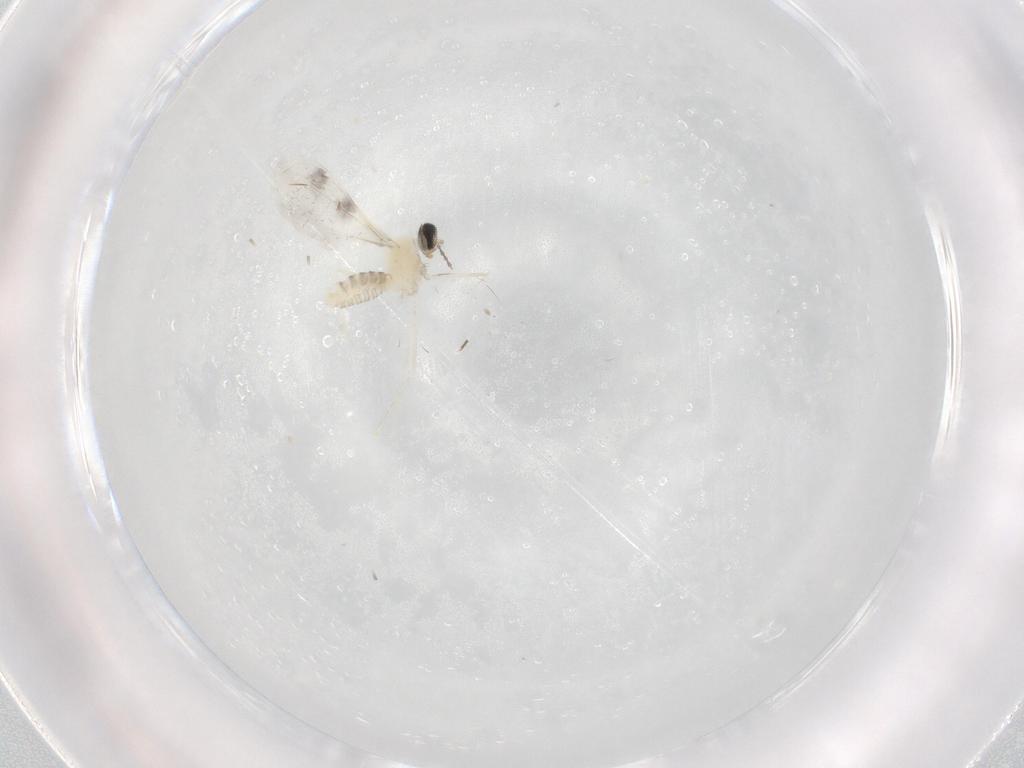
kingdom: Animalia
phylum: Arthropoda
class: Insecta
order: Diptera
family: Cecidomyiidae
